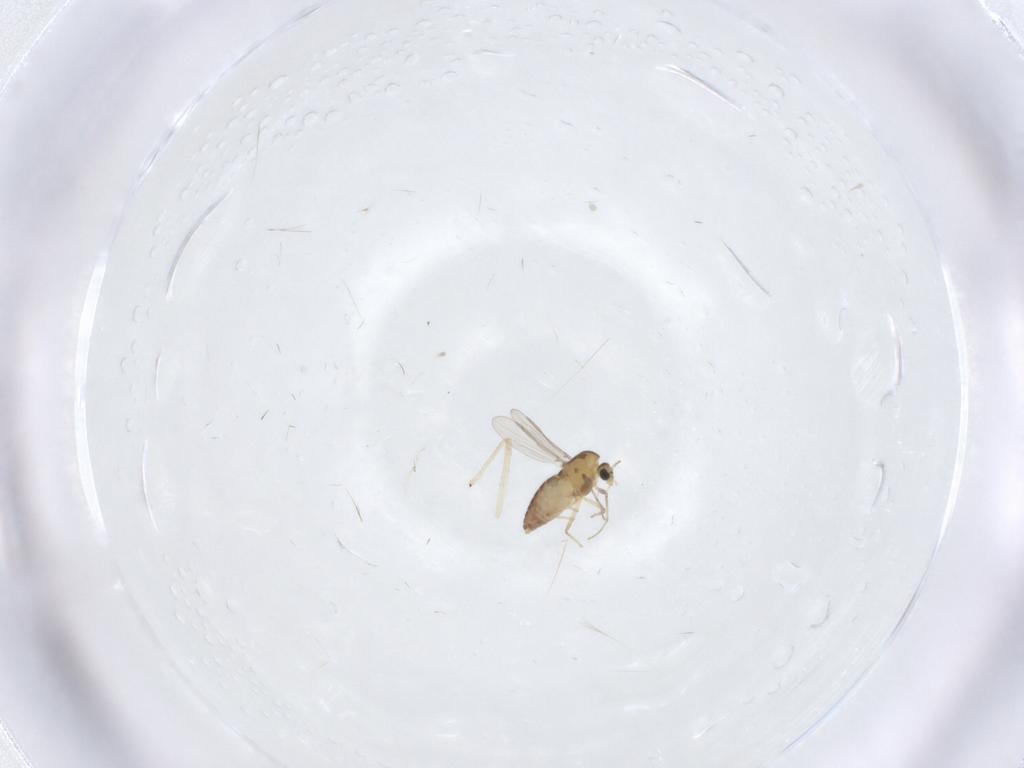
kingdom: Animalia
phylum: Arthropoda
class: Insecta
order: Diptera
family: Chironomidae
